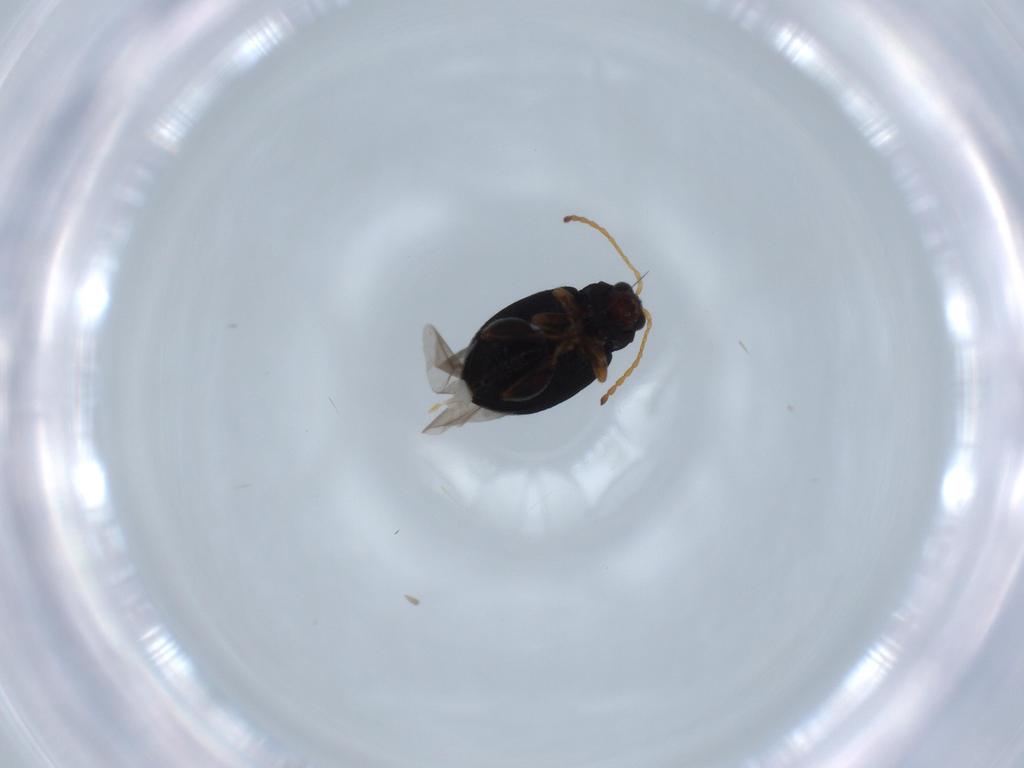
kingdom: Animalia
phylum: Arthropoda
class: Insecta
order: Coleoptera
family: Chrysomelidae
